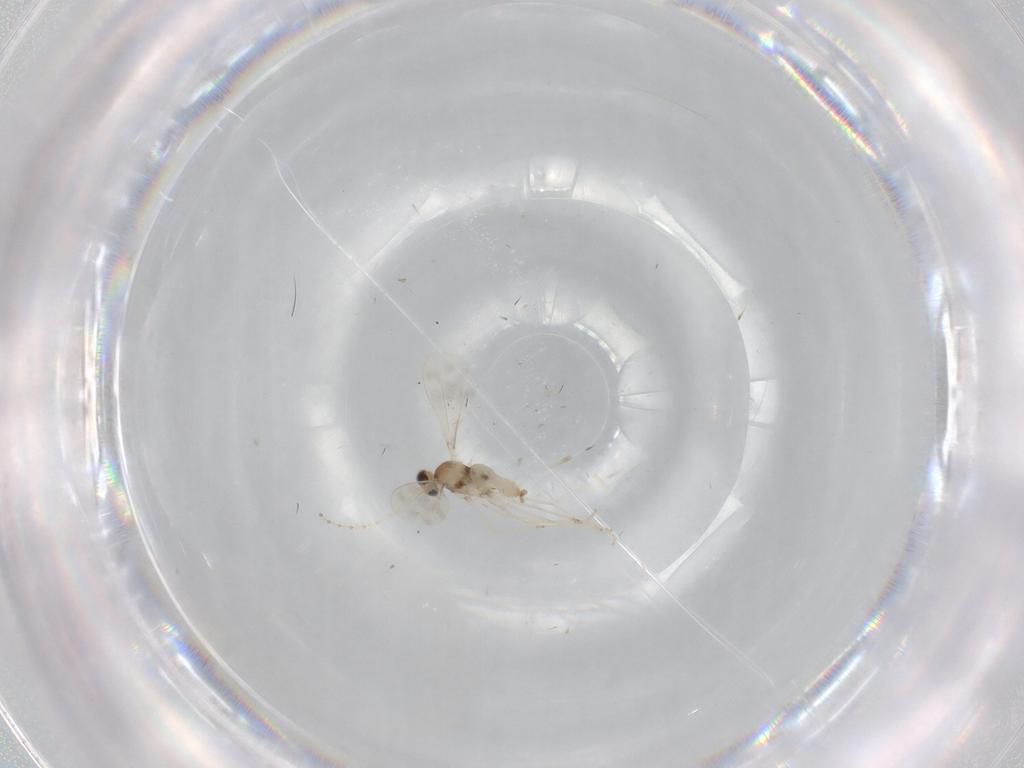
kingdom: Animalia
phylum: Arthropoda
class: Insecta
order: Diptera
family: Cecidomyiidae
